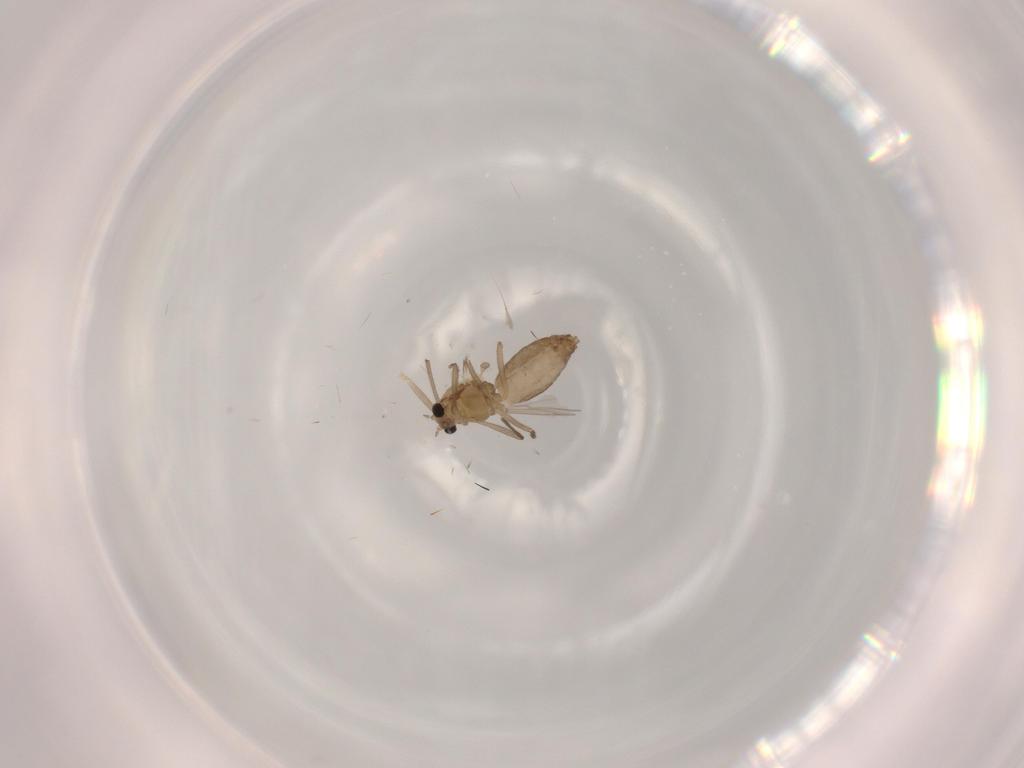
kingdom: Animalia
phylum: Arthropoda
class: Insecta
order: Diptera
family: Chironomidae
